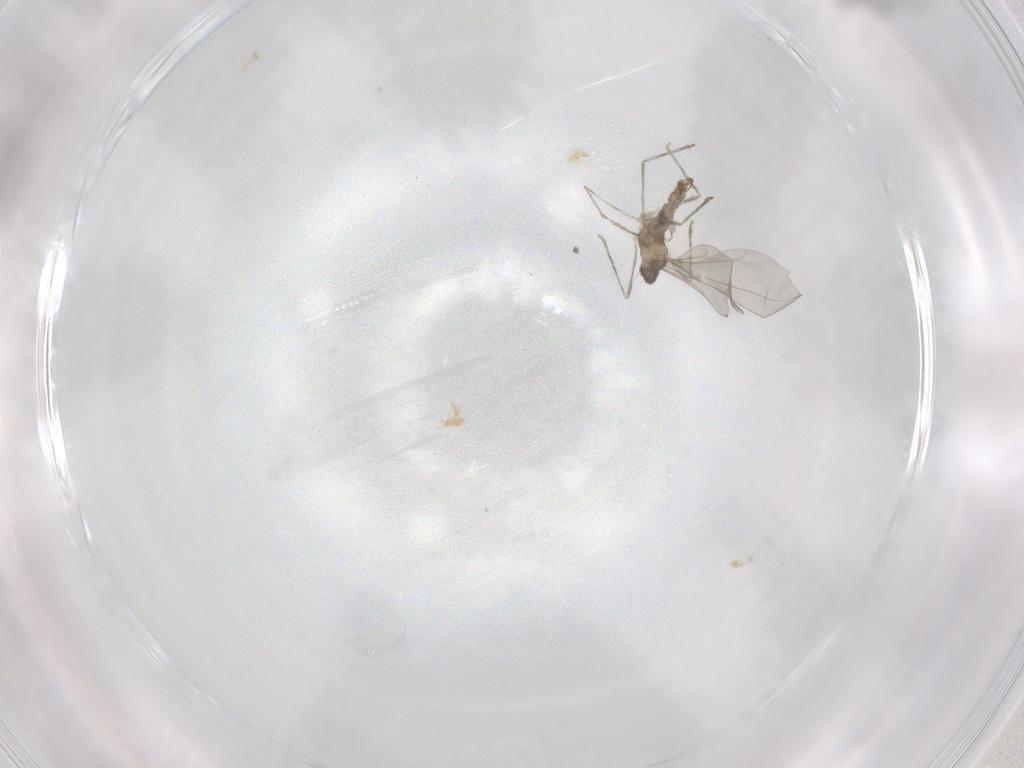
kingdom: Animalia
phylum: Arthropoda
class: Insecta
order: Diptera
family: Cecidomyiidae
